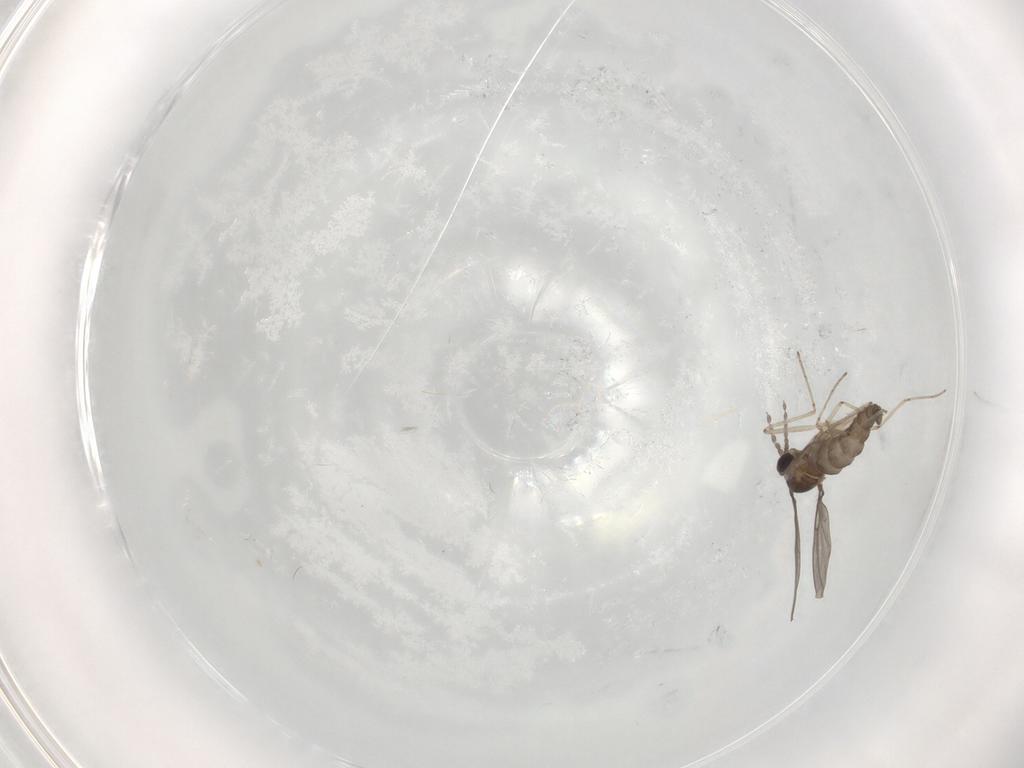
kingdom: Animalia
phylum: Arthropoda
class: Insecta
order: Diptera
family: Cecidomyiidae
